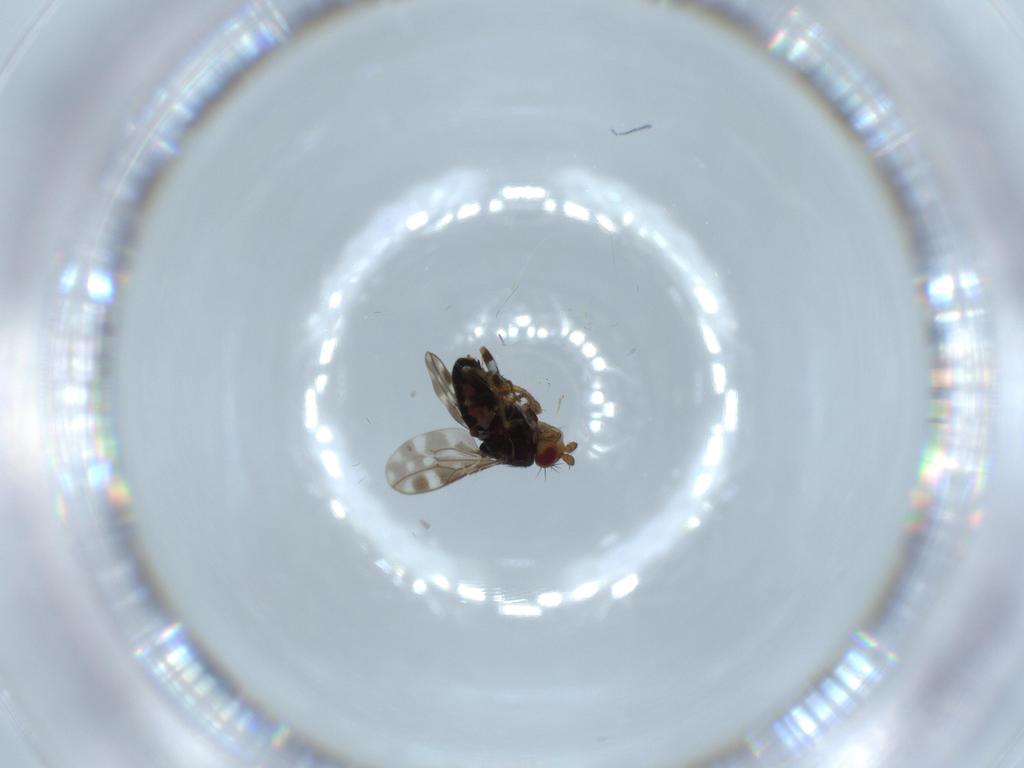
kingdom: Animalia
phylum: Arthropoda
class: Insecta
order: Diptera
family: Sphaeroceridae
